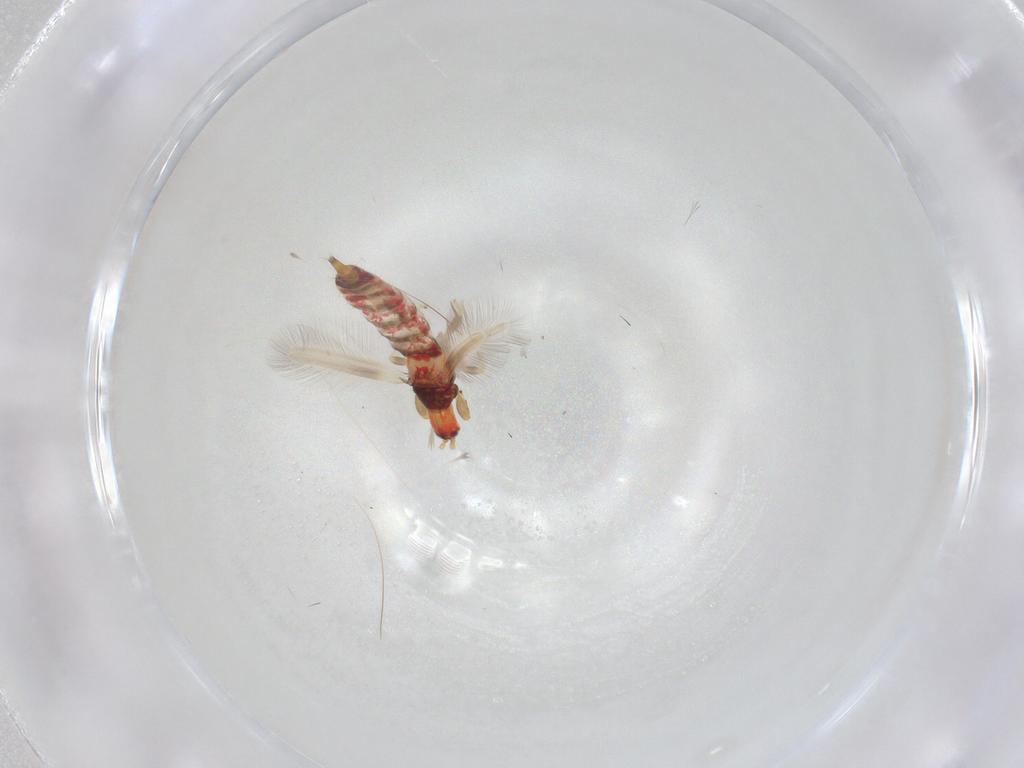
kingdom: Animalia
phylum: Arthropoda
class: Insecta
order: Thysanoptera
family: Phlaeothripidae
